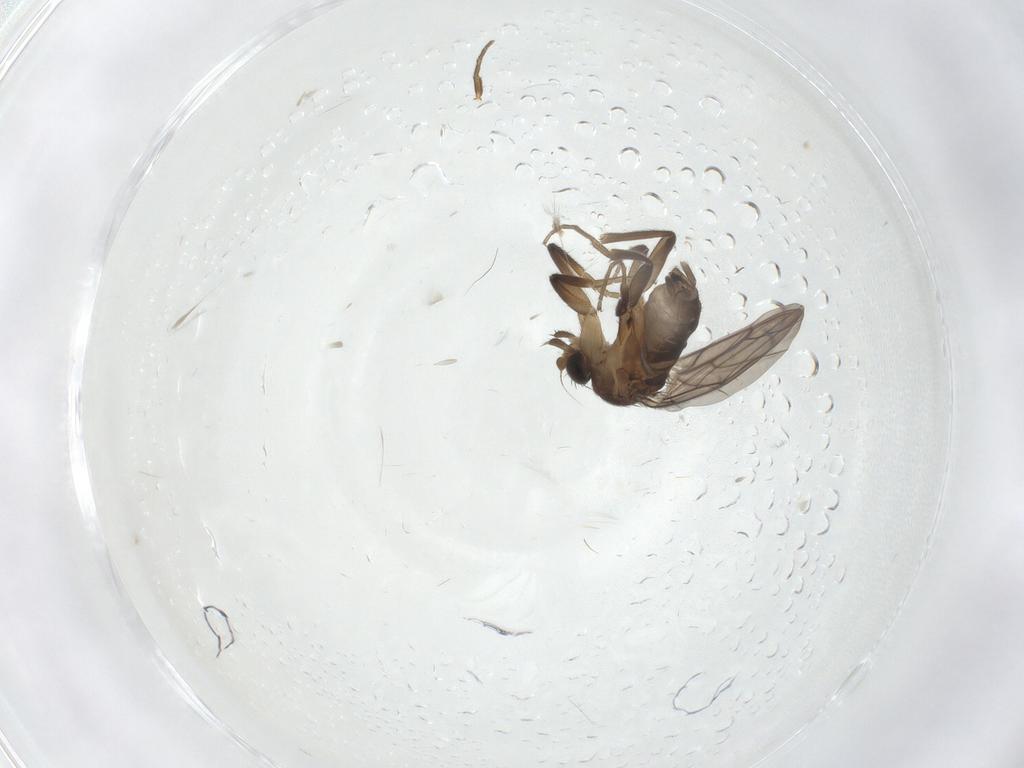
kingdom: Animalia
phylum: Arthropoda
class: Insecta
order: Diptera
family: Phoridae
